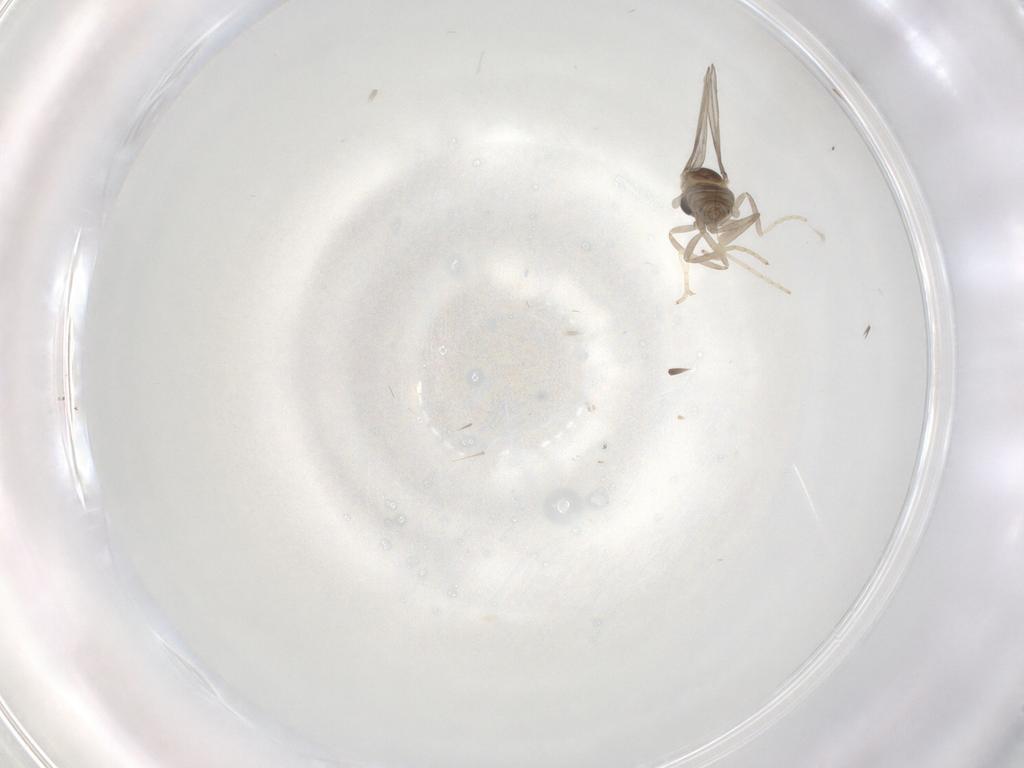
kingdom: Animalia
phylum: Arthropoda
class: Insecta
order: Diptera
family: Cecidomyiidae
